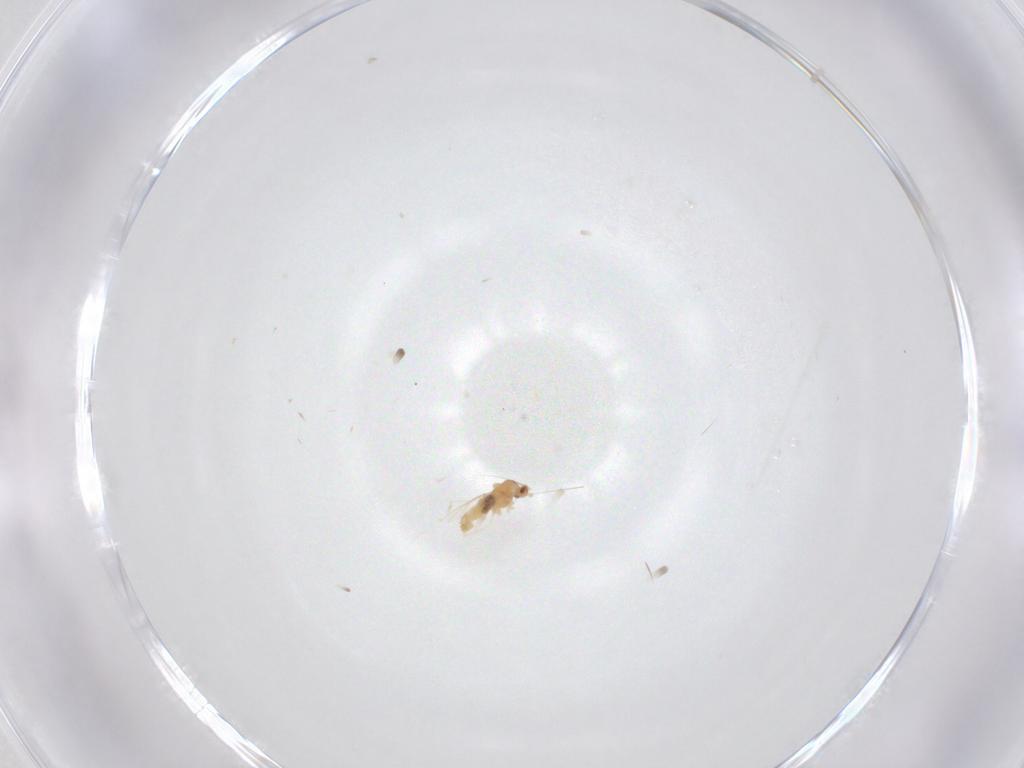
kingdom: Animalia
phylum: Arthropoda
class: Insecta
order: Diptera
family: Cecidomyiidae
